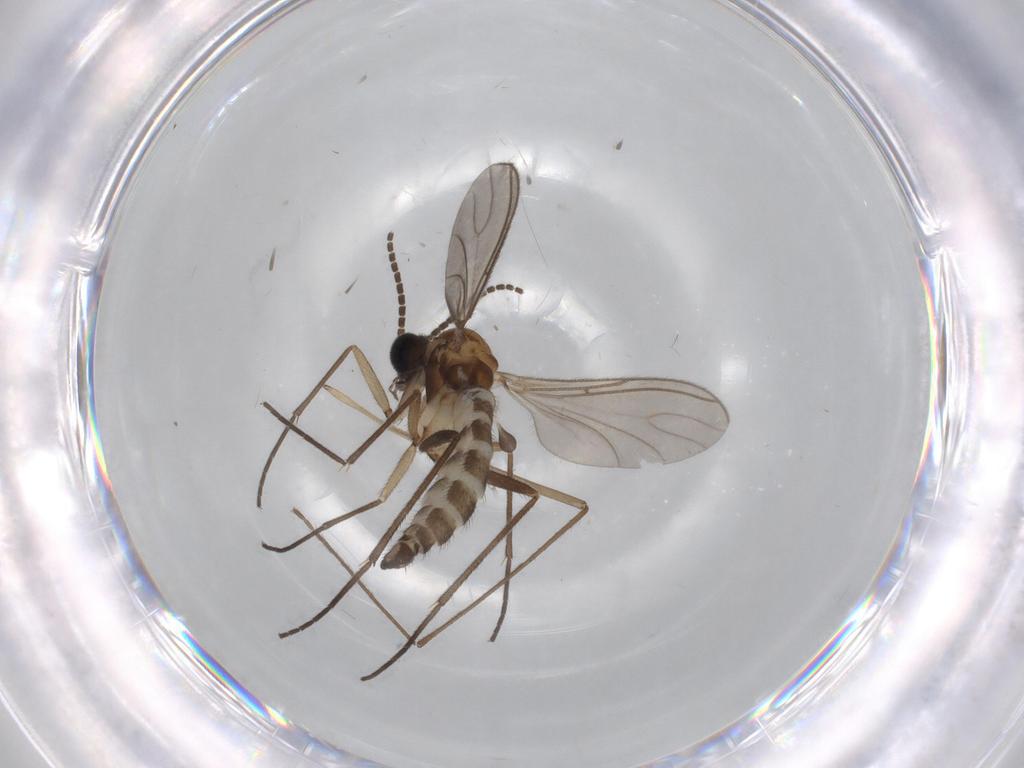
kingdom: Animalia
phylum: Arthropoda
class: Insecta
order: Diptera
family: Sciaridae
